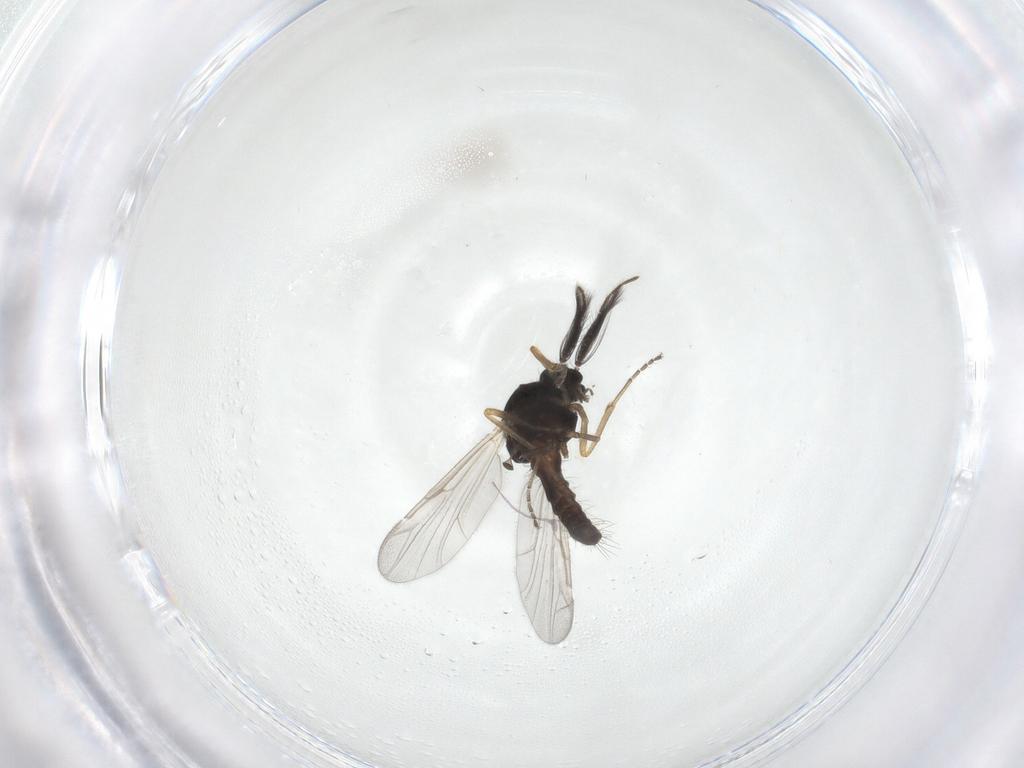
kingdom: Animalia
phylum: Arthropoda
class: Insecta
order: Diptera
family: Ceratopogonidae
